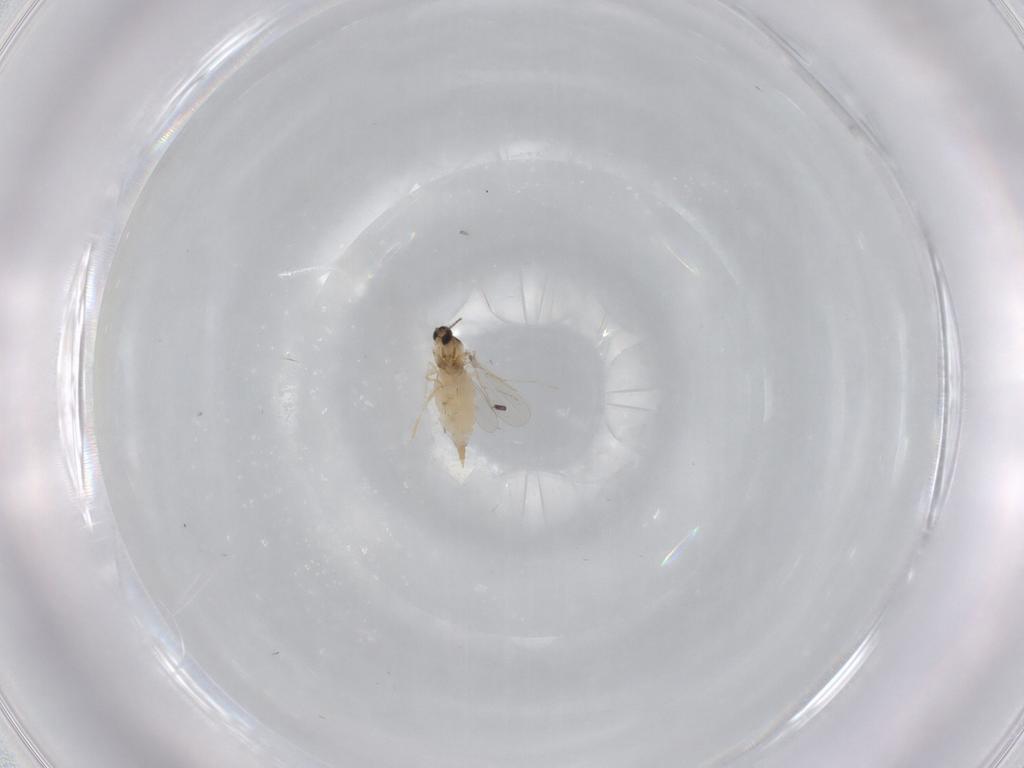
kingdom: Animalia
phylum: Arthropoda
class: Insecta
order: Diptera
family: Cecidomyiidae
